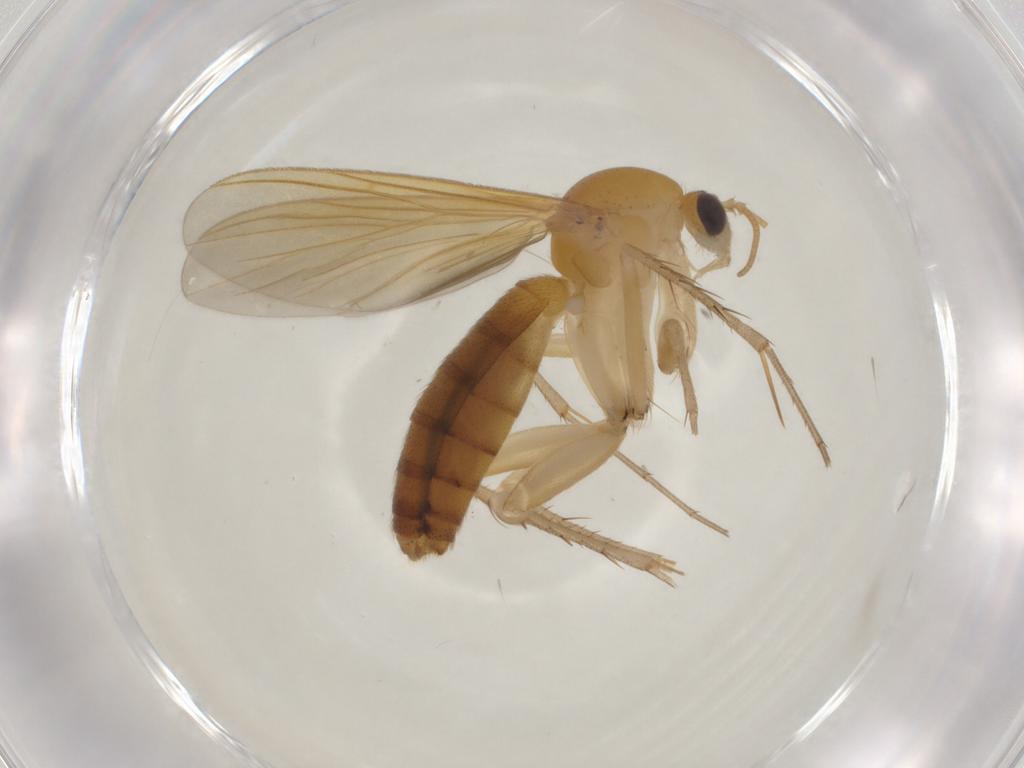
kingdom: Animalia
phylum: Arthropoda
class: Insecta
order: Diptera
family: Mycetophilidae
